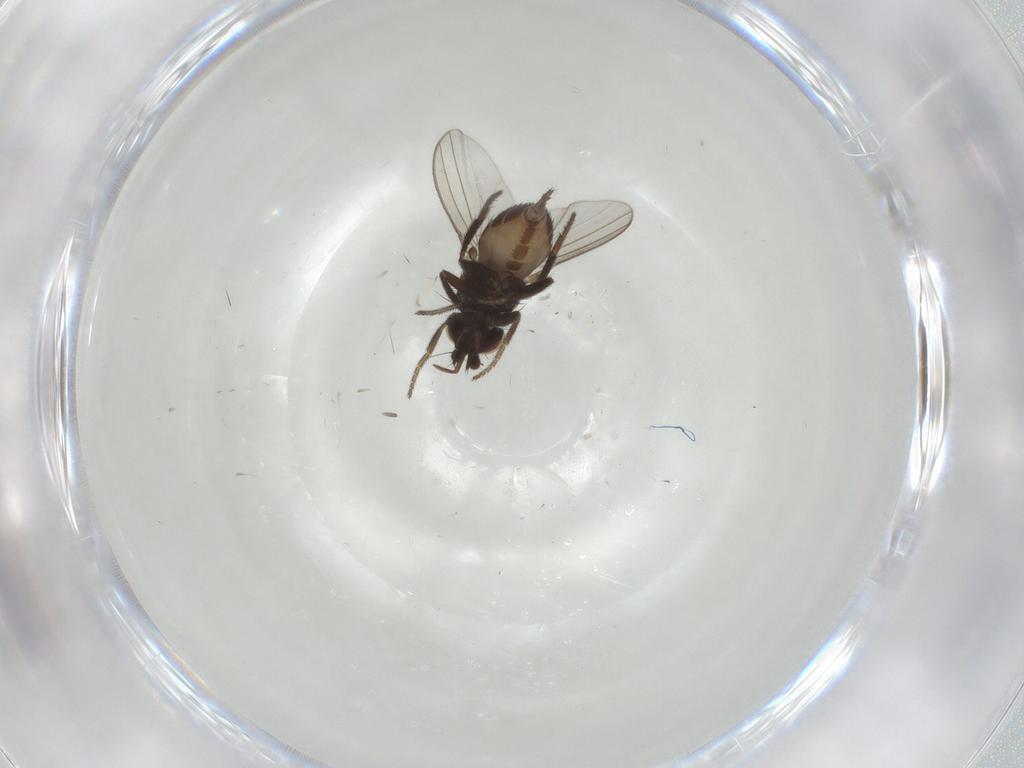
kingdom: Animalia
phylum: Arthropoda
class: Insecta
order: Diptera
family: Milichiidae
